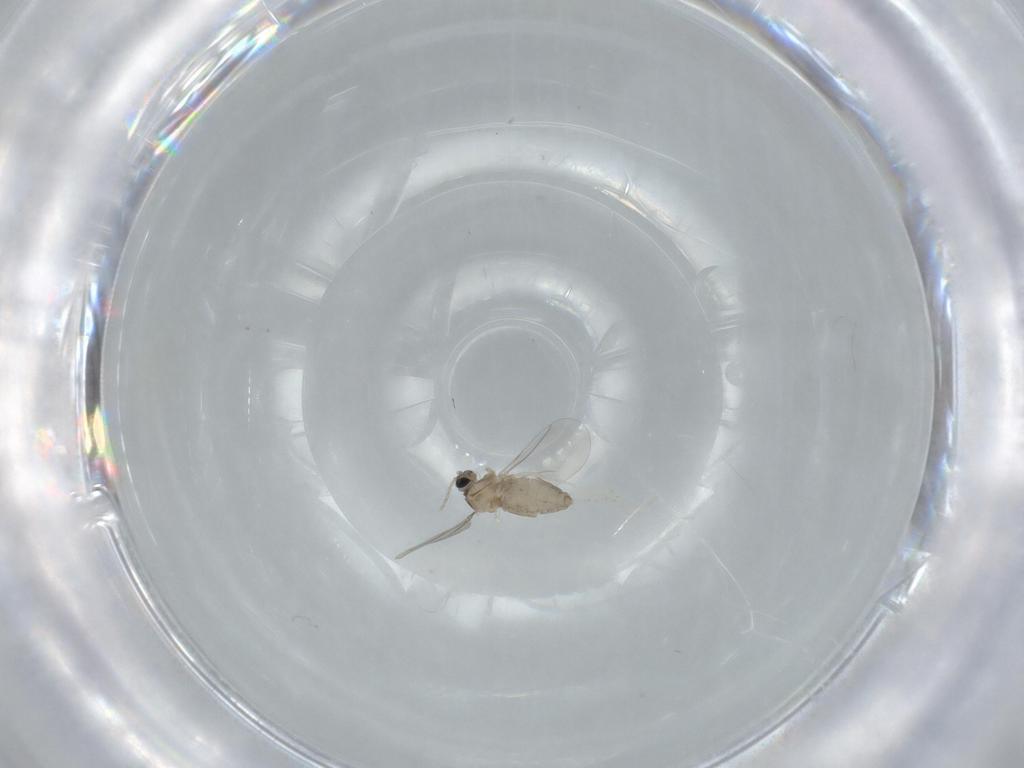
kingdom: Animalia
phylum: Arthropoda
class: Insecta
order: Diptera
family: Cecidomyiidae
